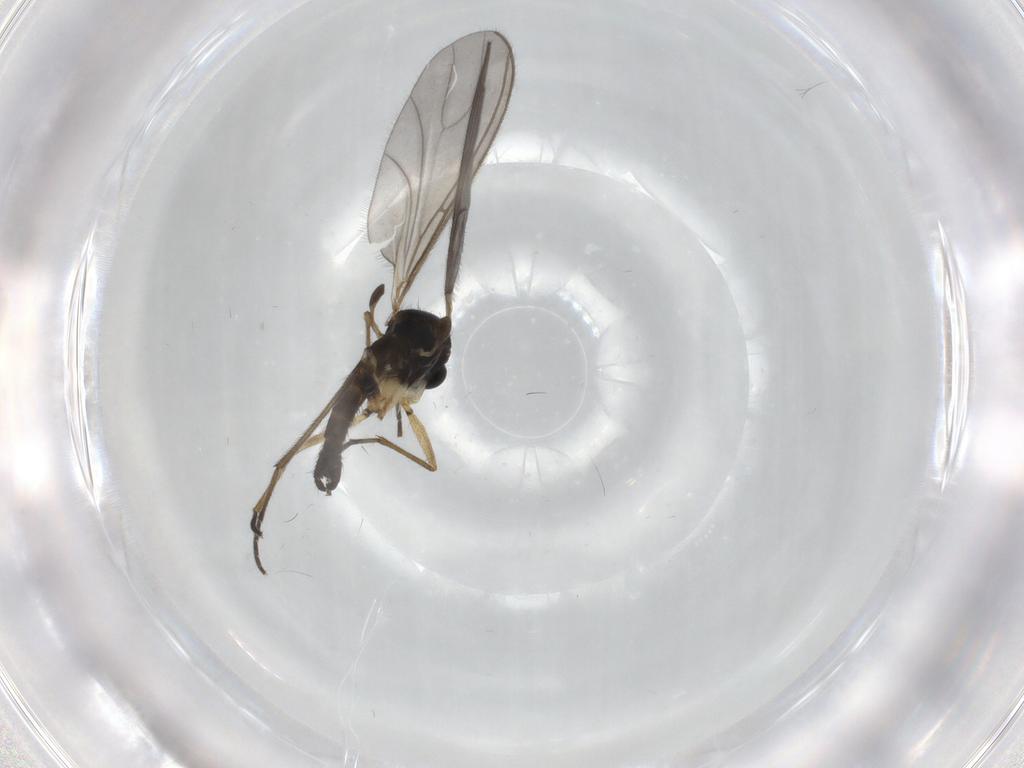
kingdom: Animalia
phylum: Arthropoda
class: Insecta
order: Diptera
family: Sciaridae
